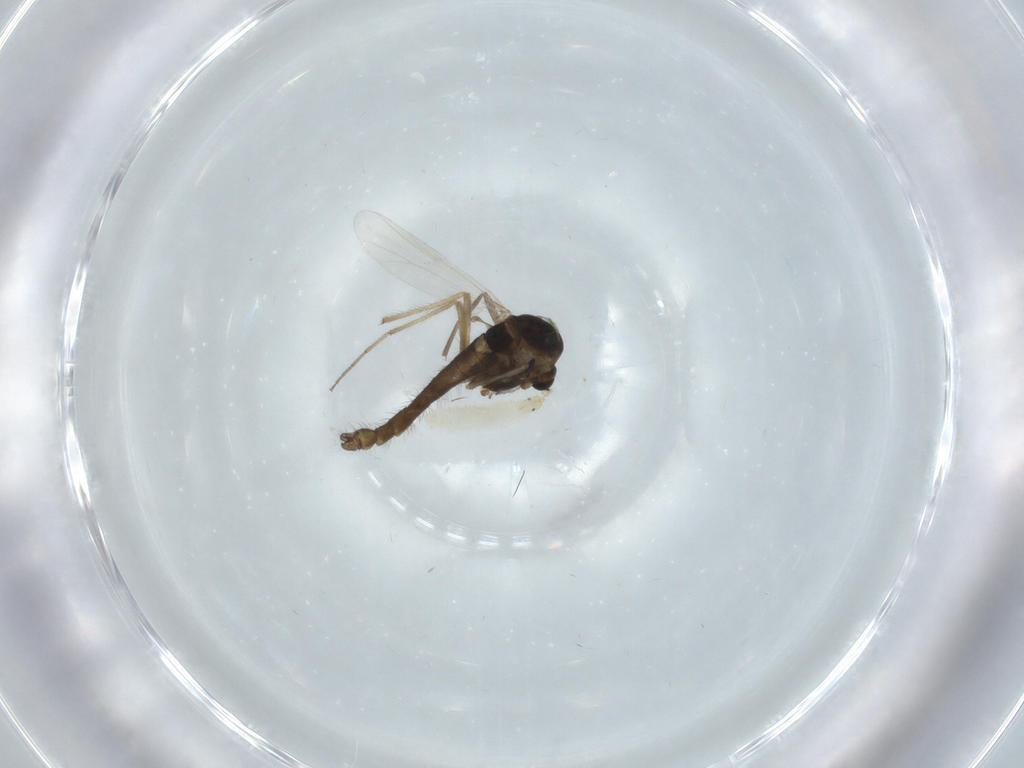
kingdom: Animalia
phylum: Arthropoda
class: Insecta
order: Diptera
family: Chironomidae
